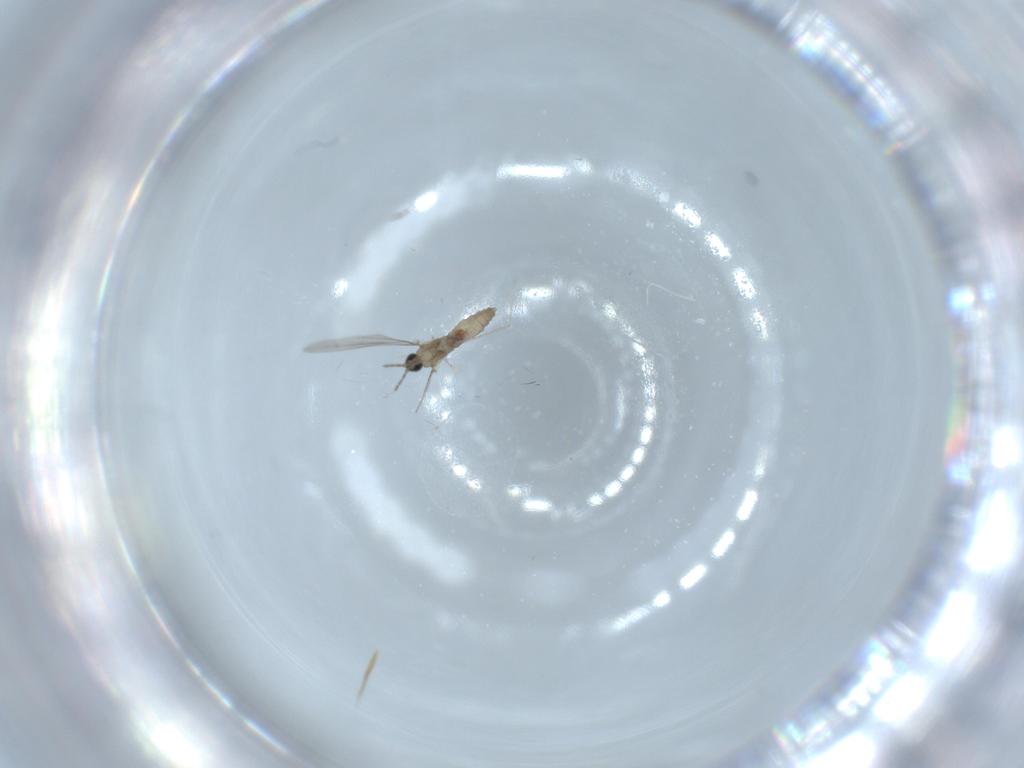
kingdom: Animalia
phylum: Arthropoda
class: Insecta
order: Diptera
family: Cecidomyiidae
